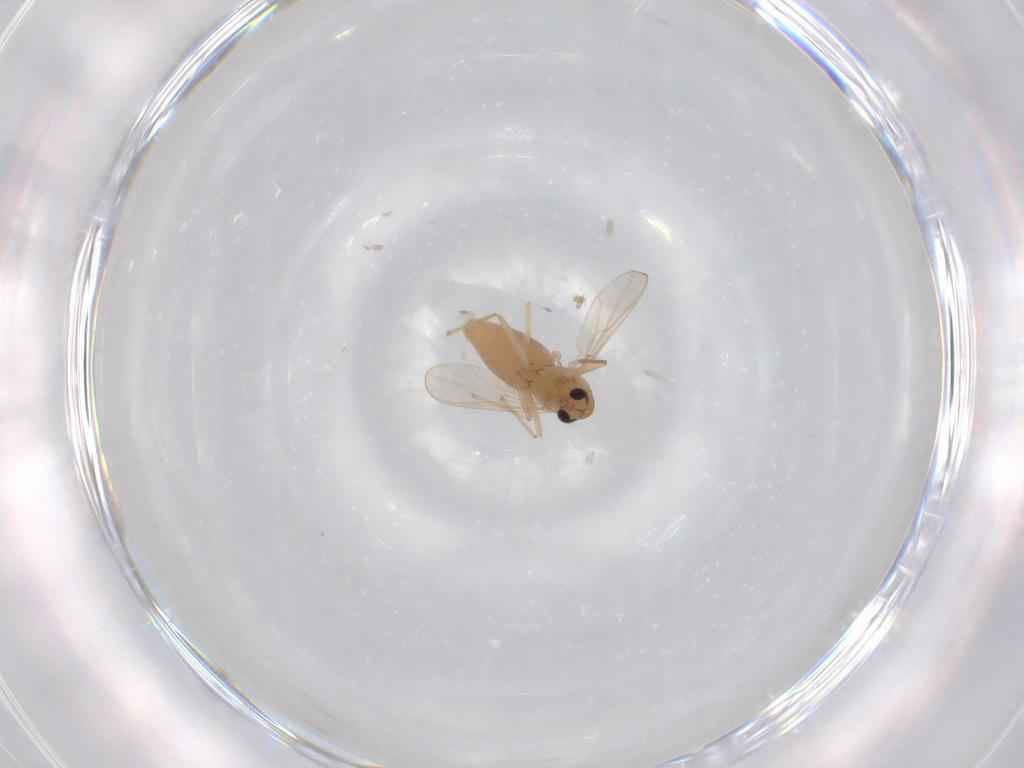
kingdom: Animalia
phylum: Arthropoda
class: Insecta
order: Diptera
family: Chironomidae
